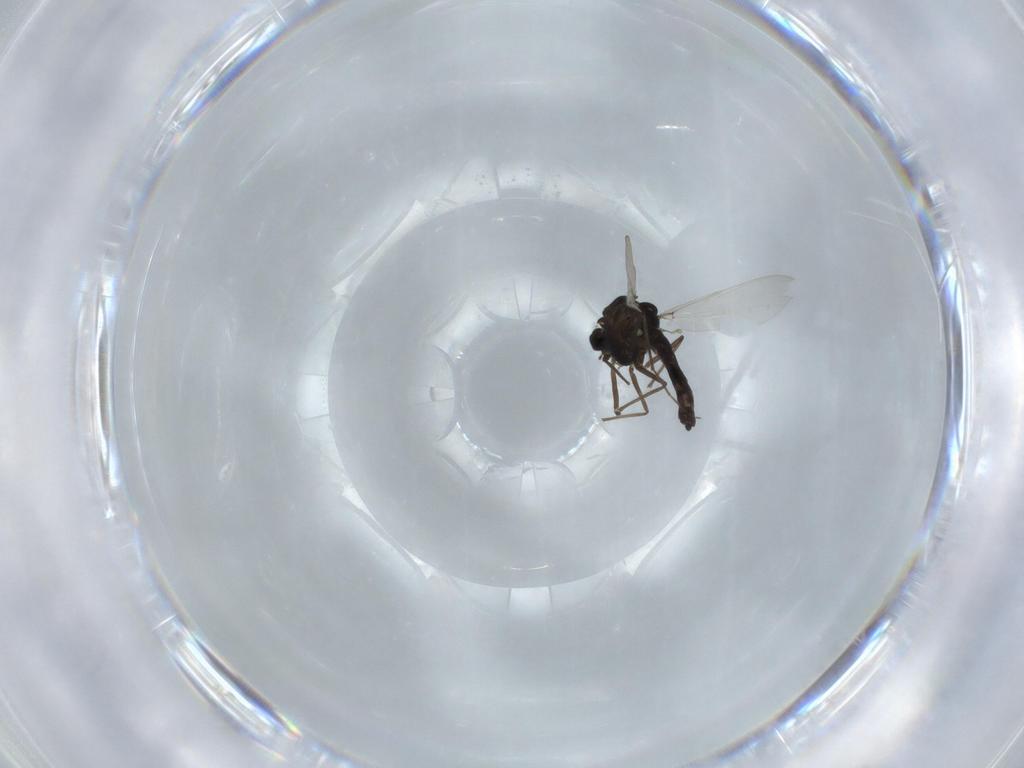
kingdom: Animalia
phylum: Arthropoda
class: Insecta
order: Diptera
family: Chironomidae
